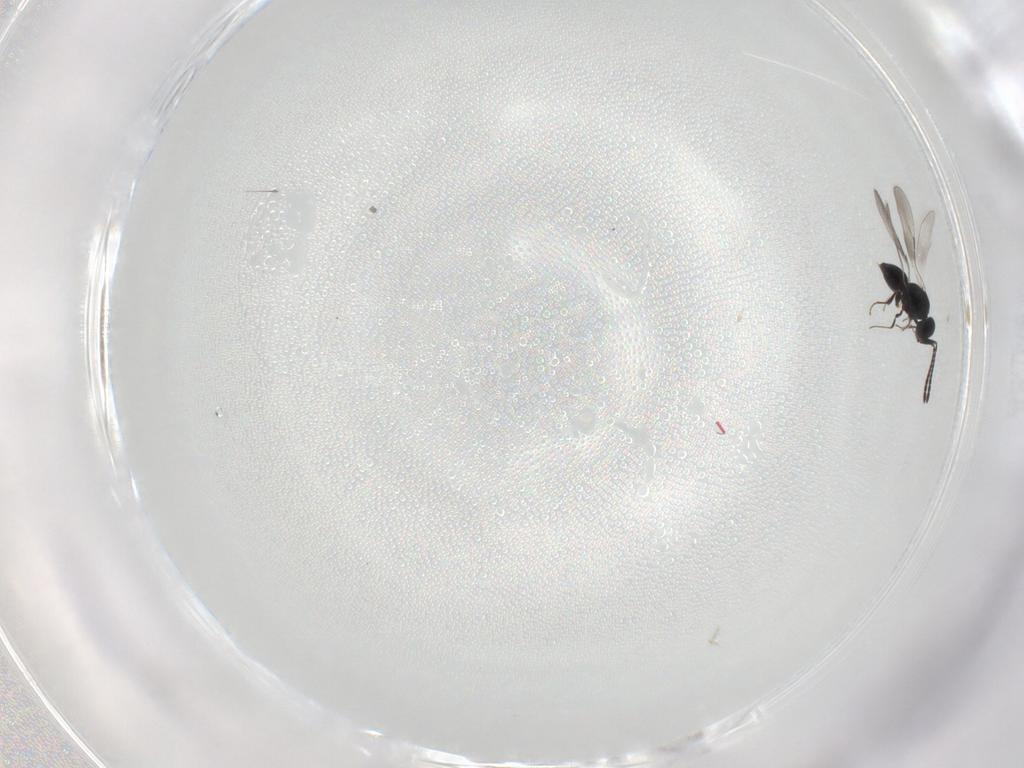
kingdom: Animalia
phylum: Arthropoda
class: Insecta
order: Hymenoptera
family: Ceraphronidae
